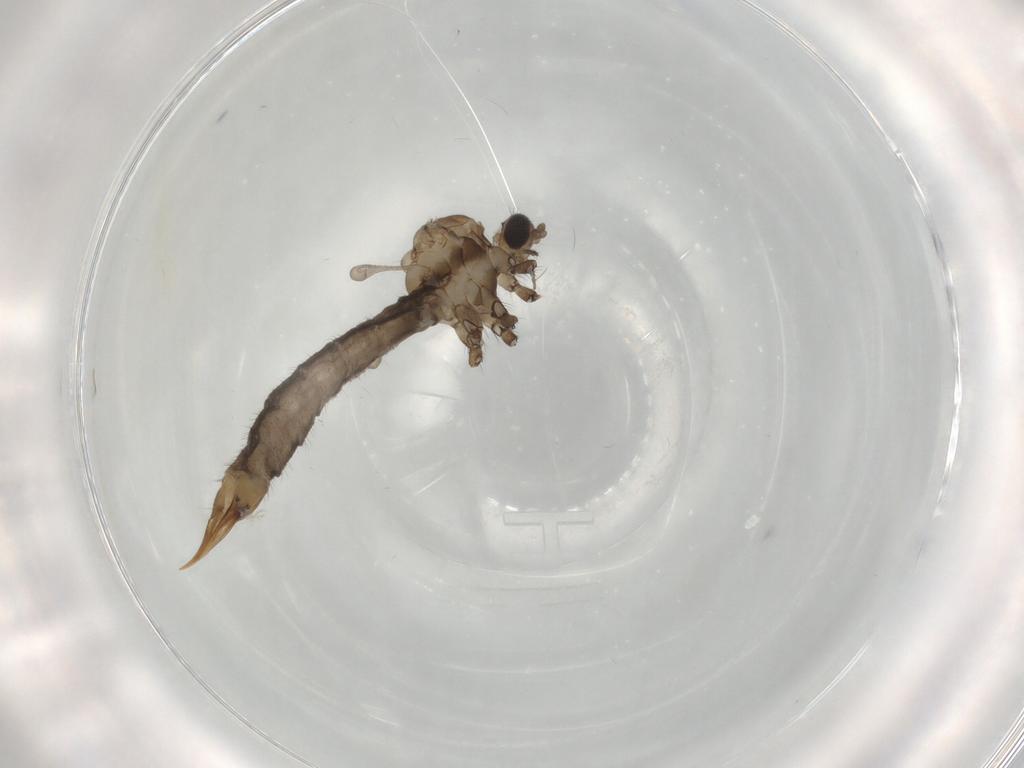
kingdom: Animalia
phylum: Arthropoda
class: Insecta
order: Diptera
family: Limoniidae
